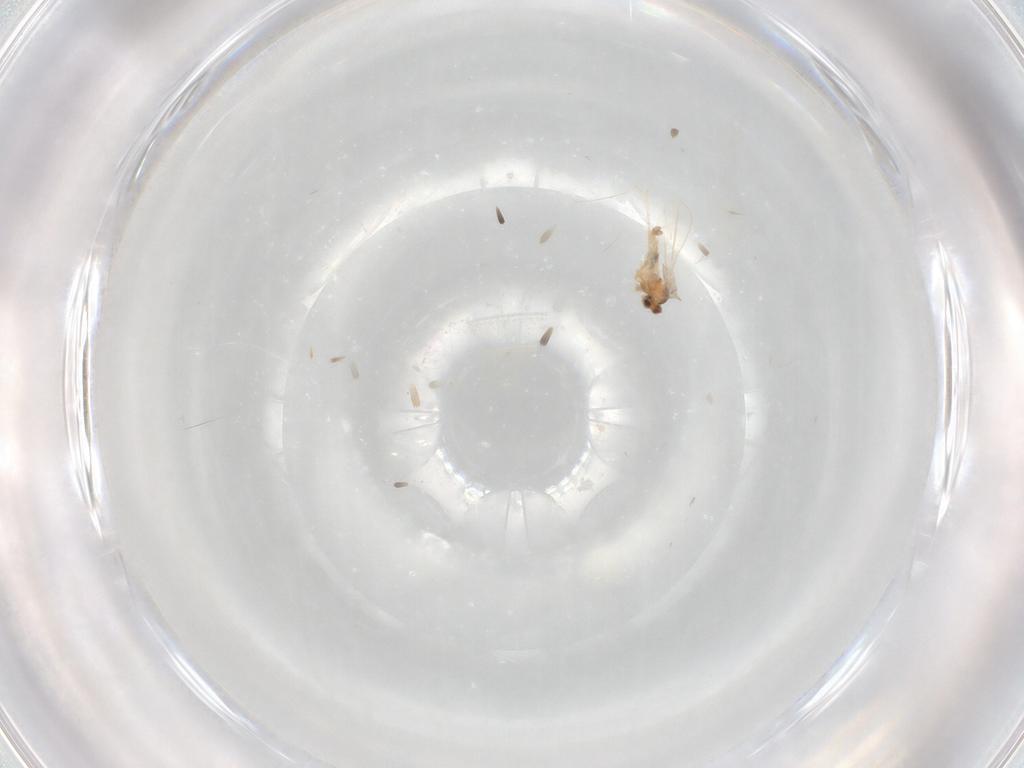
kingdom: Animalia
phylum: Arthropoda
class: Insecta
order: Diptera
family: Cecidomyiidae
